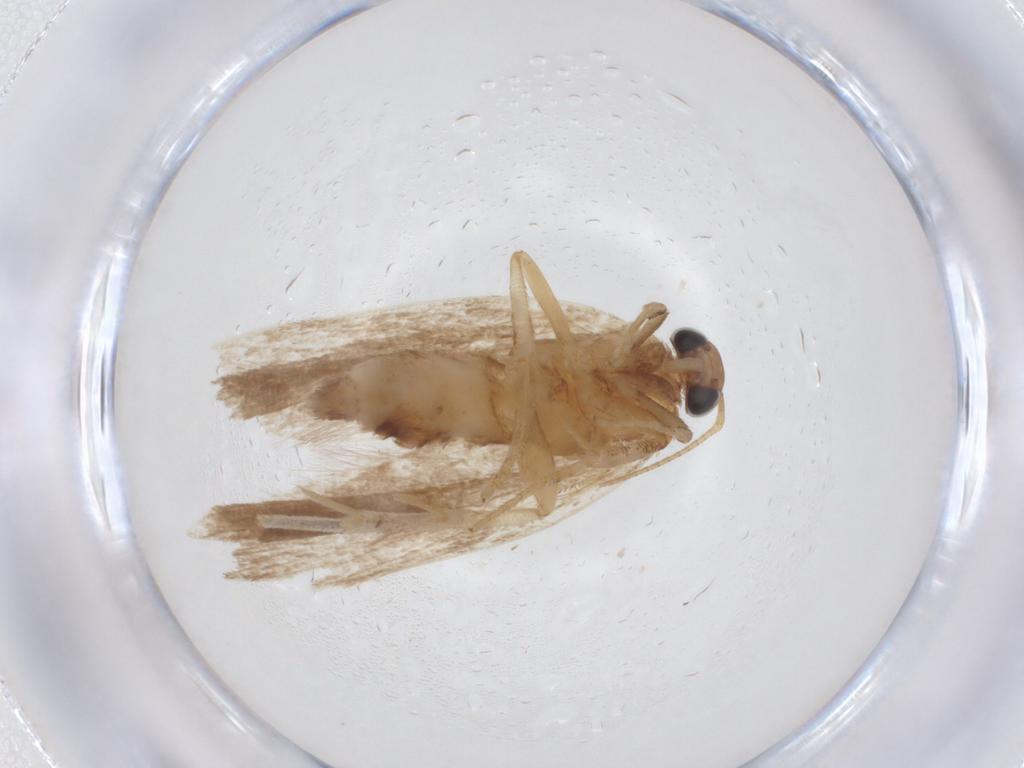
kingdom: Animalia
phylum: Arthropoda
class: Insecta
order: Lepidoptera
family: Gelechiidae
